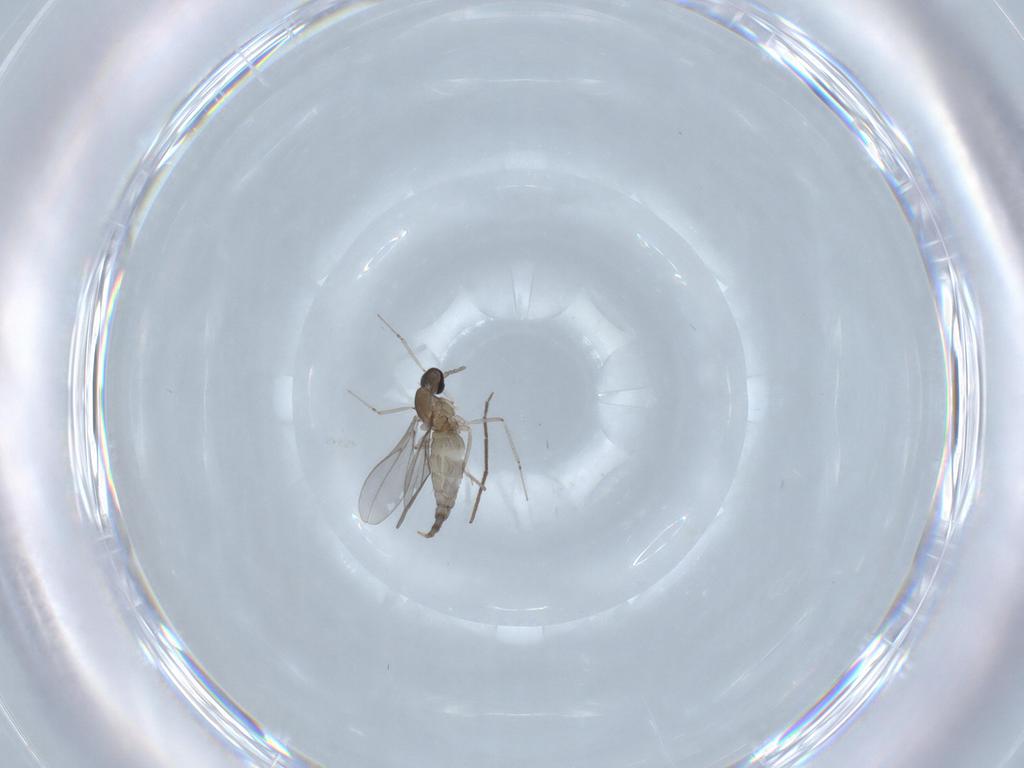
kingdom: Animalia
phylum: Arthropoda
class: Insecta
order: Diptera
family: Cecidomyiidae
